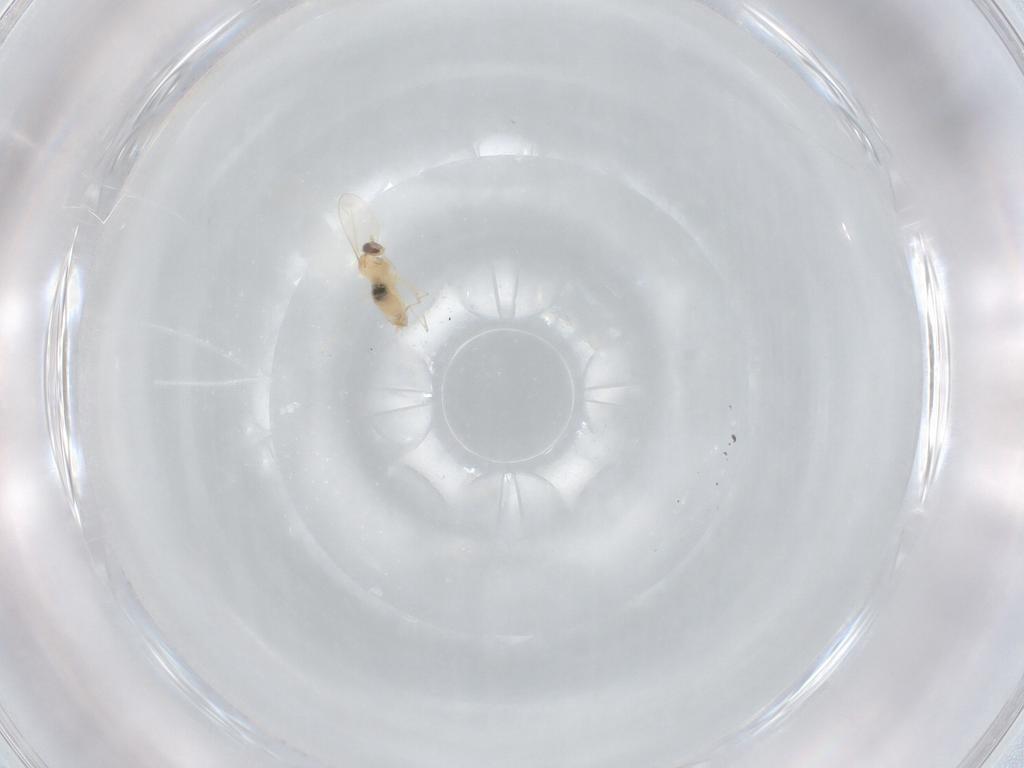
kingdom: Animalia
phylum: Arthropoda
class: Insecta
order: Diptera
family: Cecidomyiidae
